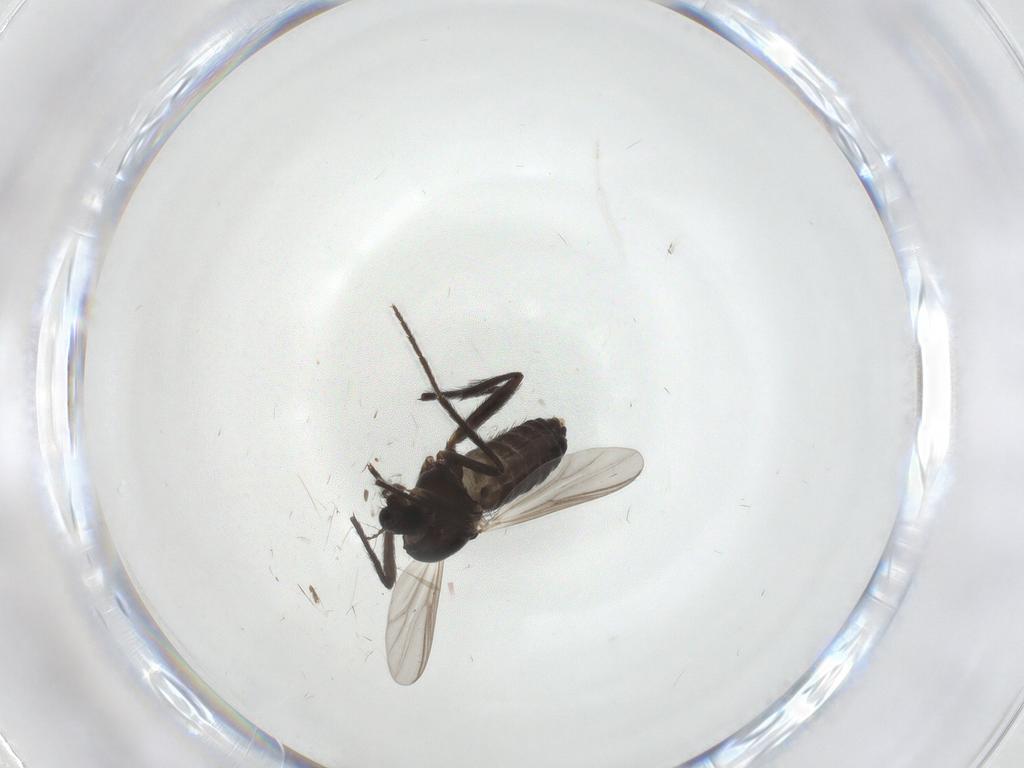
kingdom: Animalia
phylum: Arthropoda
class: Insecta
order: Diptera
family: Chironomidae
